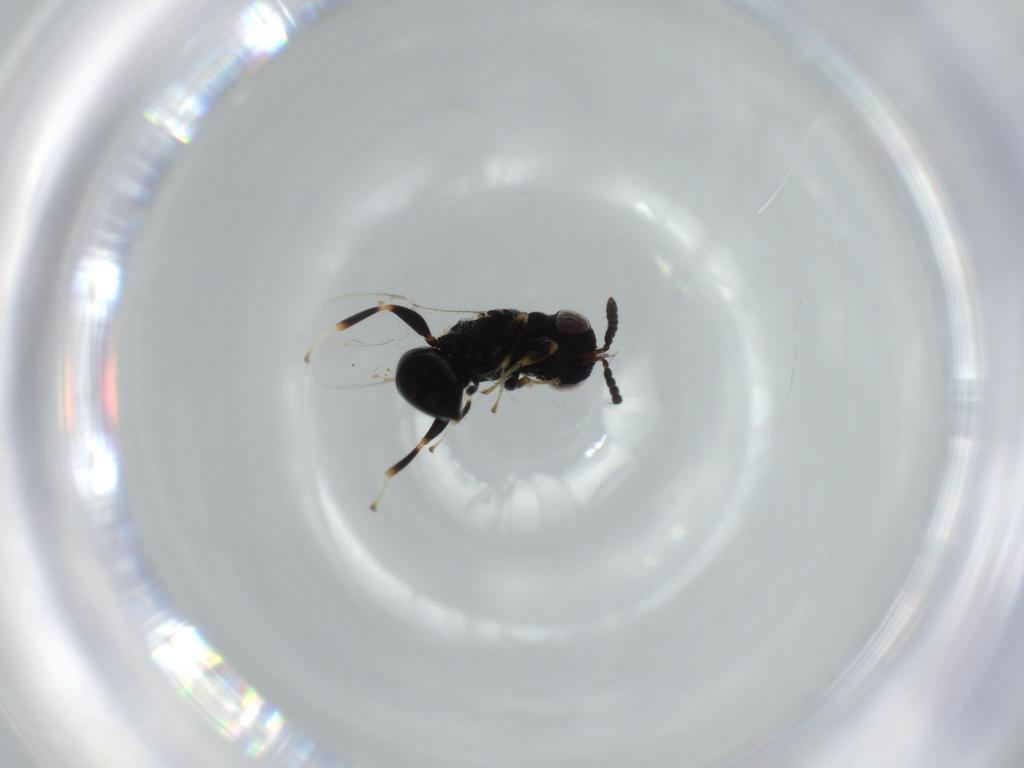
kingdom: Animalia
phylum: Arthropoda
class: Insecta
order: Hymenoptera
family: Eurytomidae
